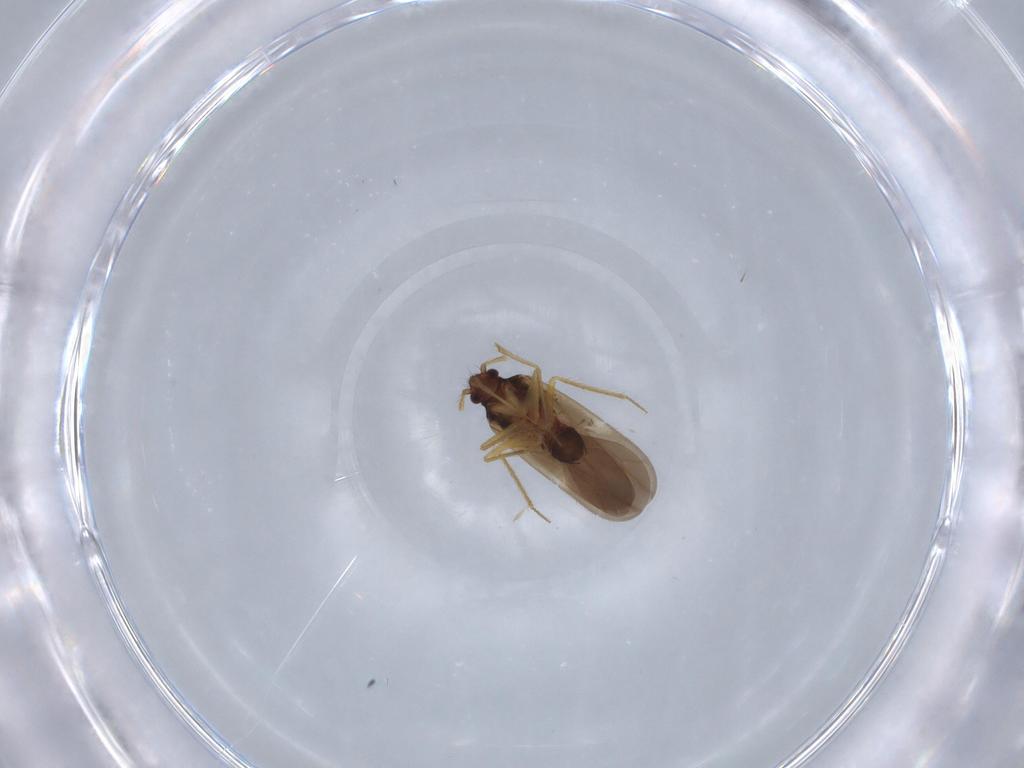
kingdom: Animalia
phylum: Arthropoda
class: Insecta
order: Hemiptera
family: Ceratocombidae
